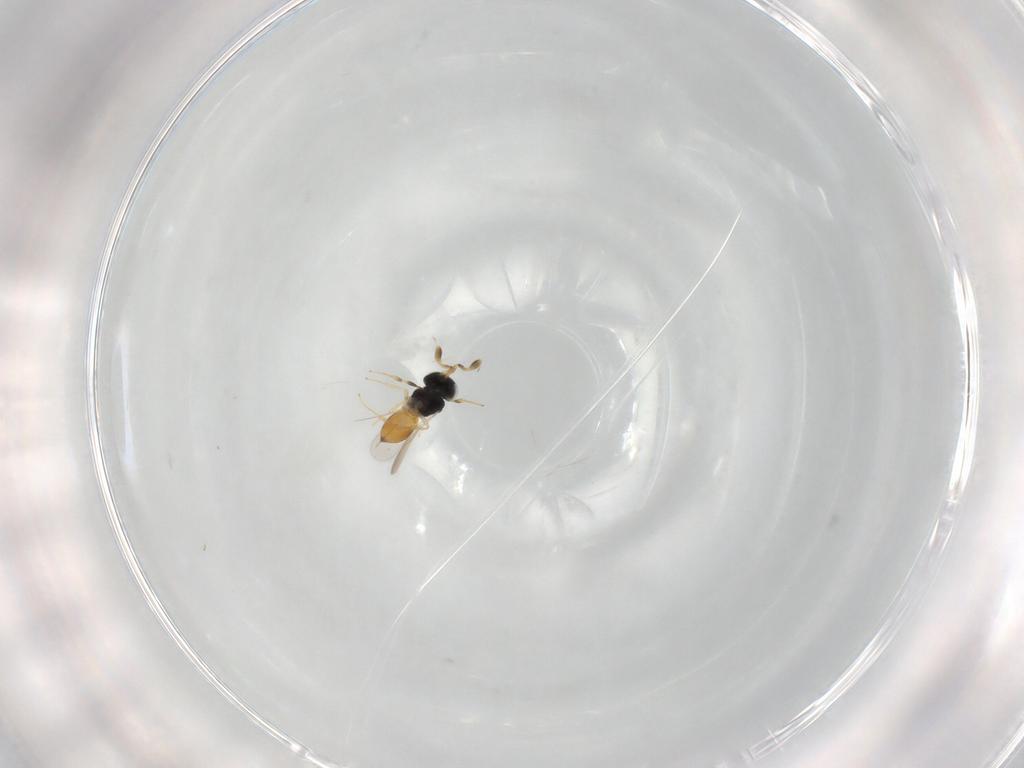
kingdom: Animalia
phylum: Arthropoda
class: Insecta
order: Hymenoptera
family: Scelionidae
